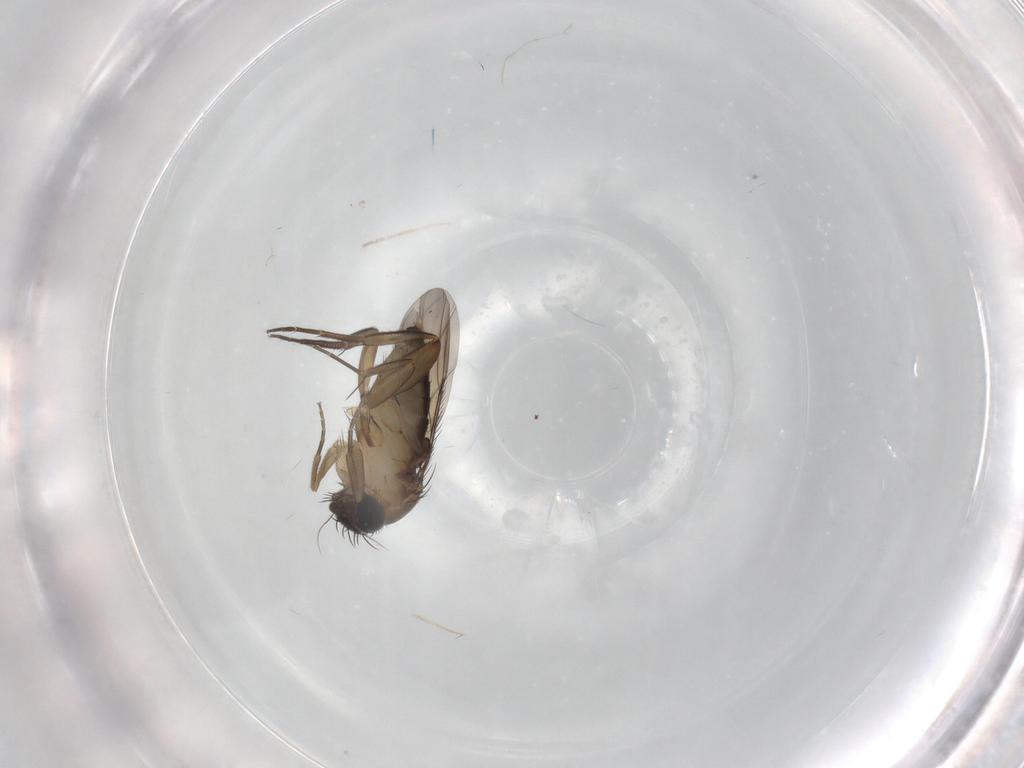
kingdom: Animalia
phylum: Arthropoda
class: Insecta
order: Diptera
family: Phoridae
